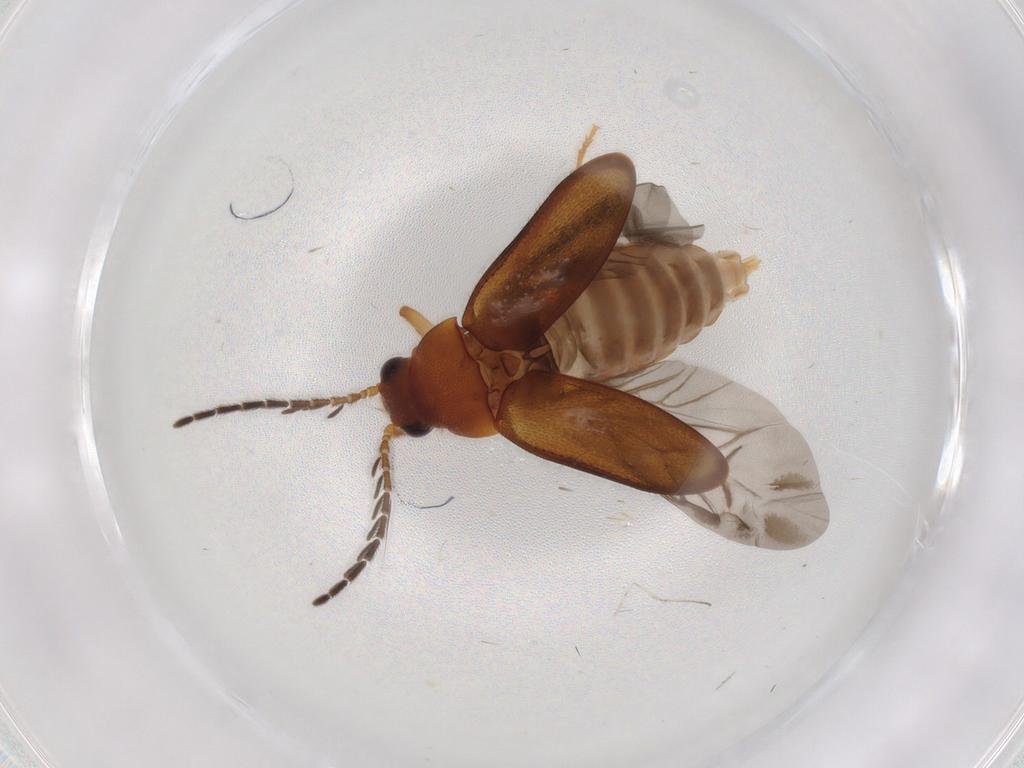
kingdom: Animalia
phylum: Arthropoda
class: Insecta
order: Coleoptera
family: Ptilodactylidae
